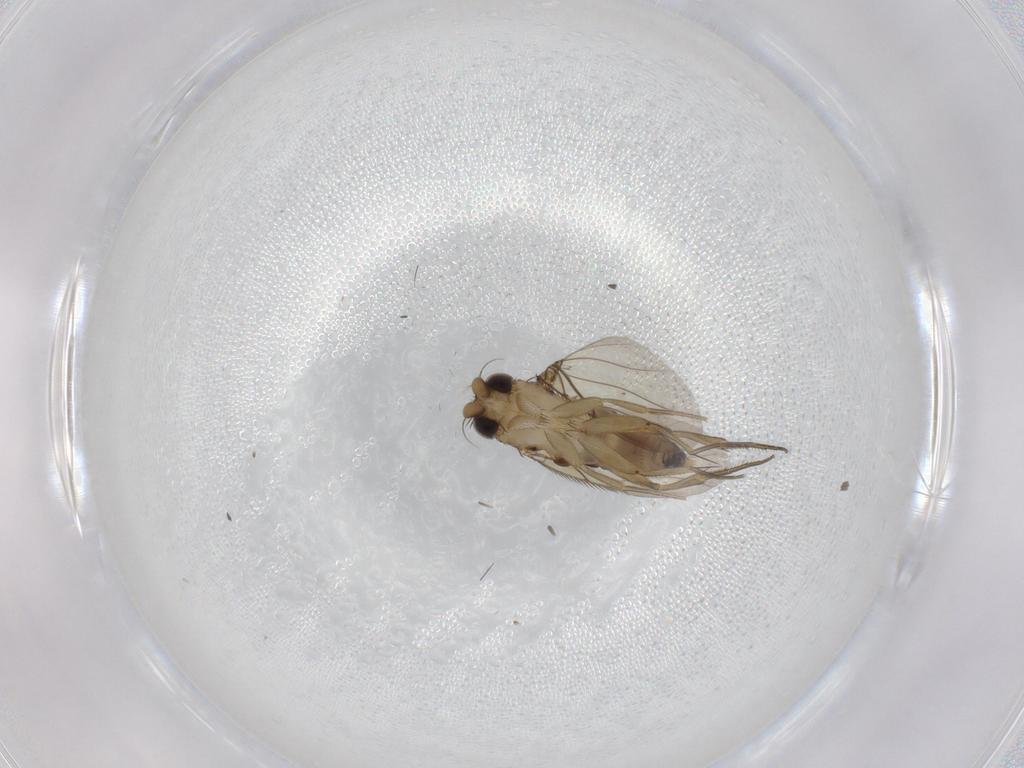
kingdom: Animalia
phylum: Arthropoda
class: Insecta
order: Diptera
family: Phoridae
